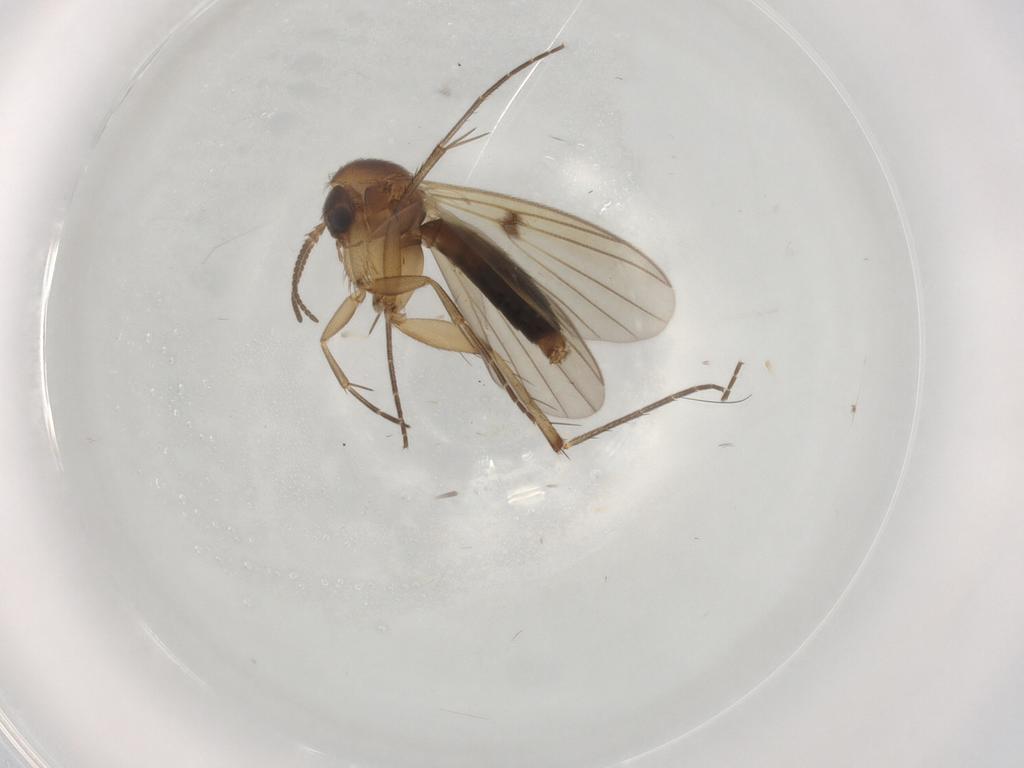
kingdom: Animalia
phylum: Arthropoda
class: Insecta
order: Diptera
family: Mycetophilidae
